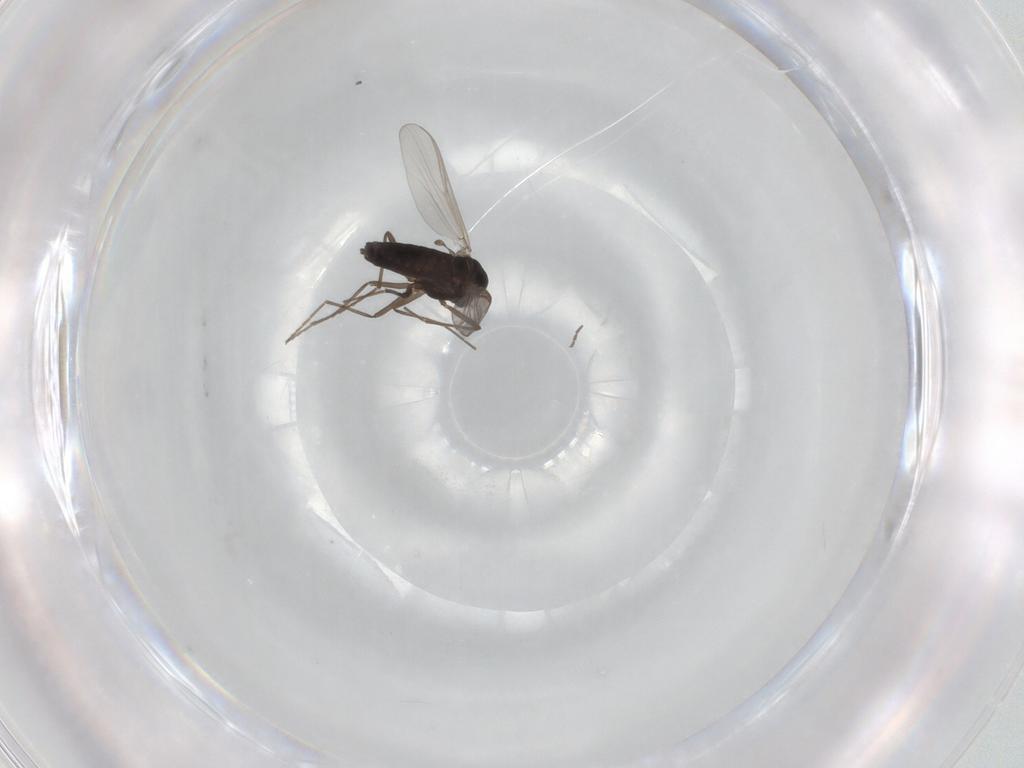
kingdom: Animalia
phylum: Arthropoda
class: Insecta
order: Diptera
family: Chironomidae
